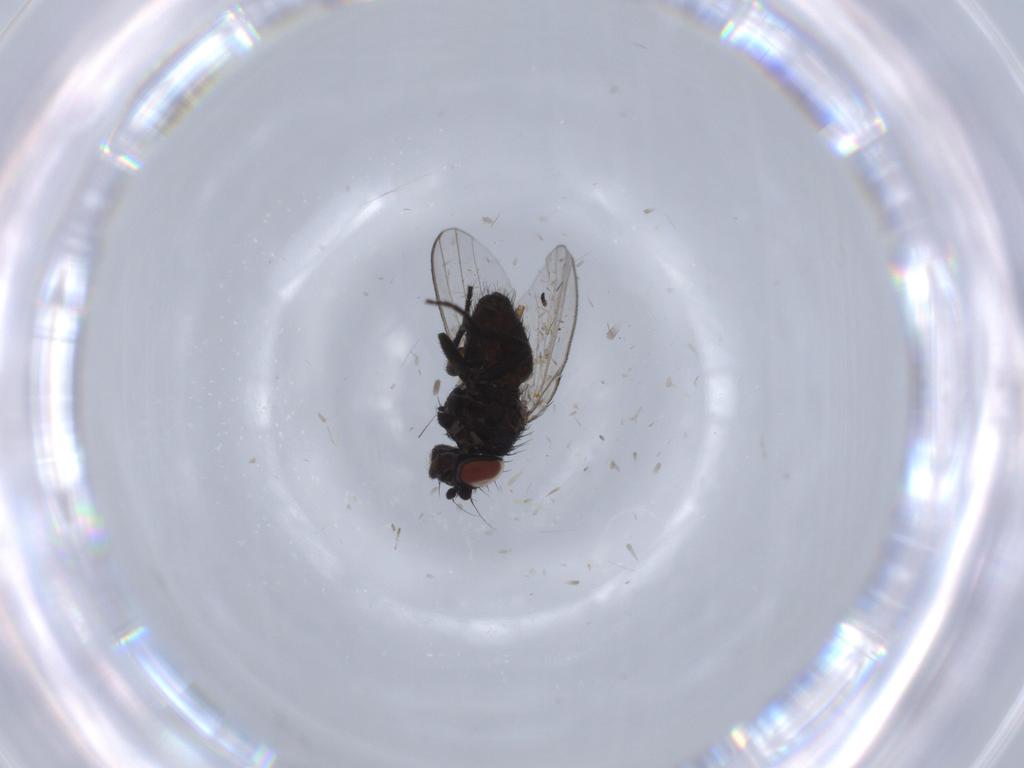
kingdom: Animalia
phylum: Arthropoda
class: Insecta
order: Diptera
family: Milichiidae
